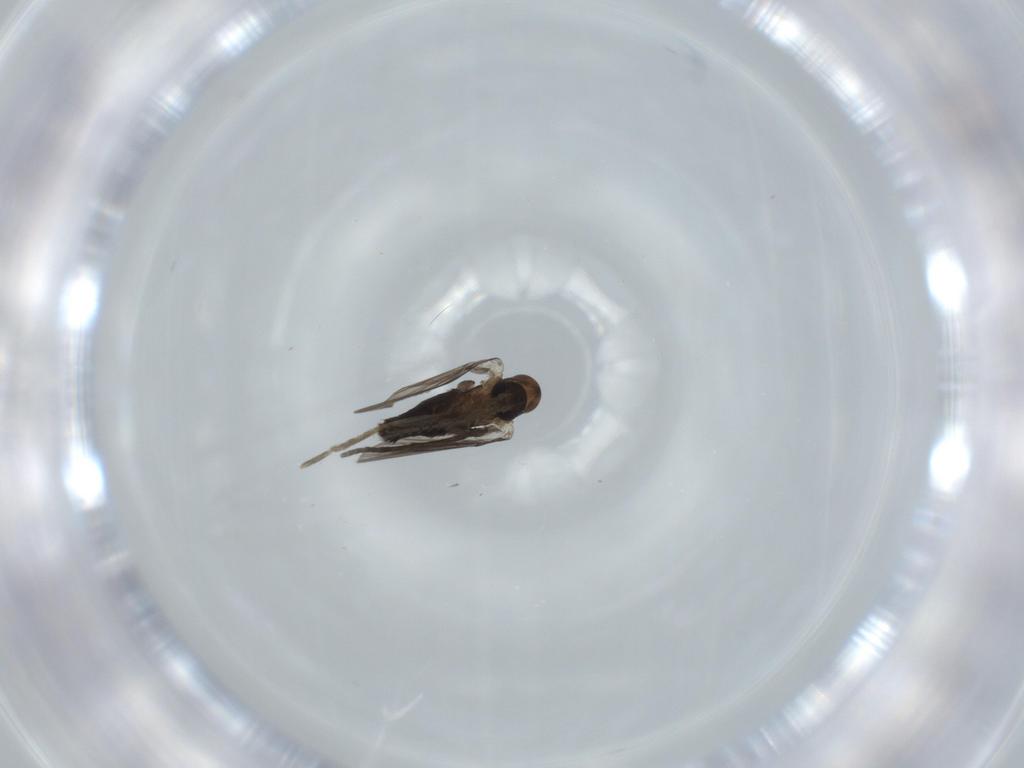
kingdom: Animalia
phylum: Arthropoda
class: Insecta
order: Diptera
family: Psychodidae
